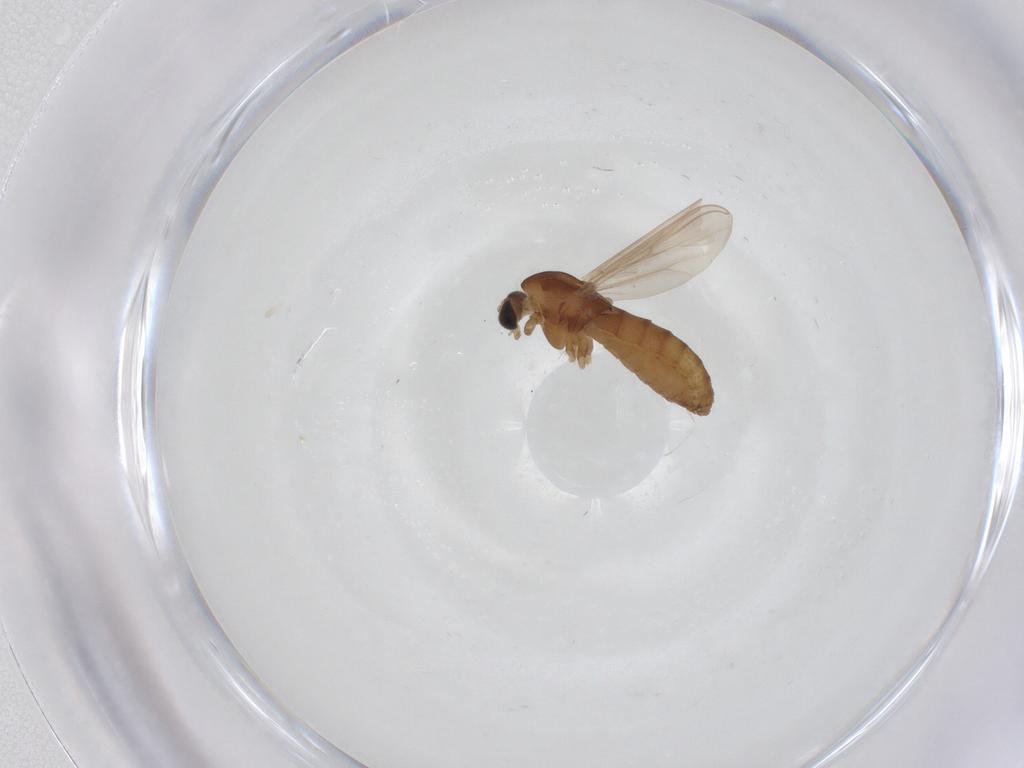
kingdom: Animalia
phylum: Arthropoda
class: Insecta
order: Diptera
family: Chironomidae
